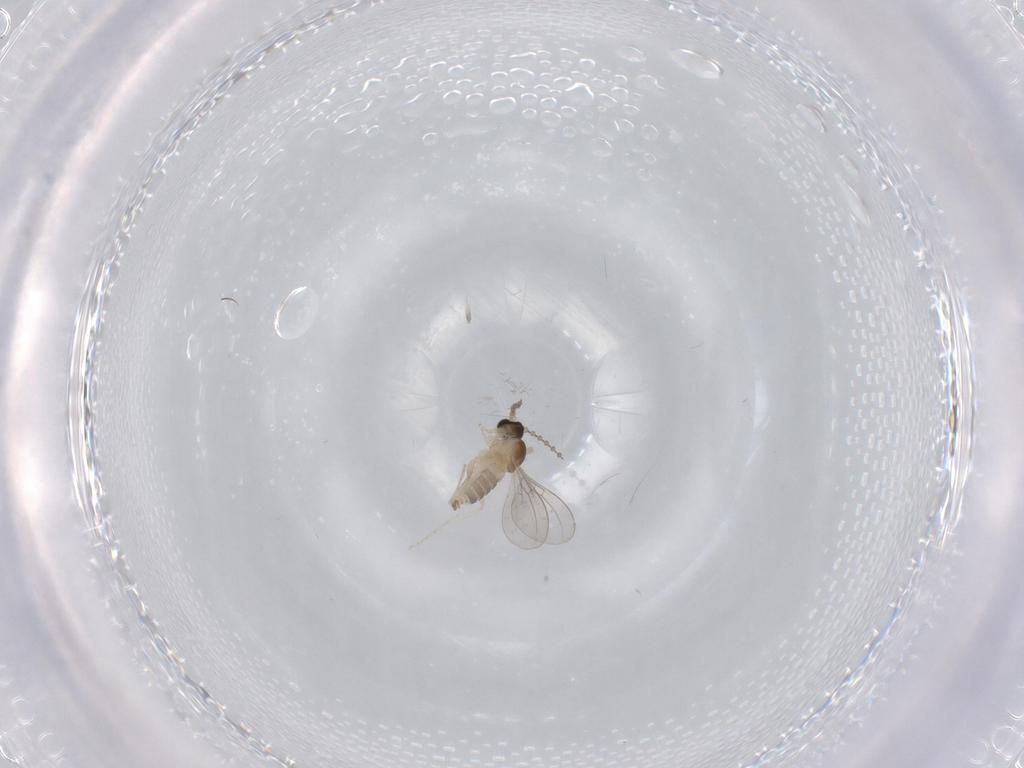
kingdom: Animalia
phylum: Arthropoda
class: Insecta
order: Diptera
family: Cecidomyiidae
